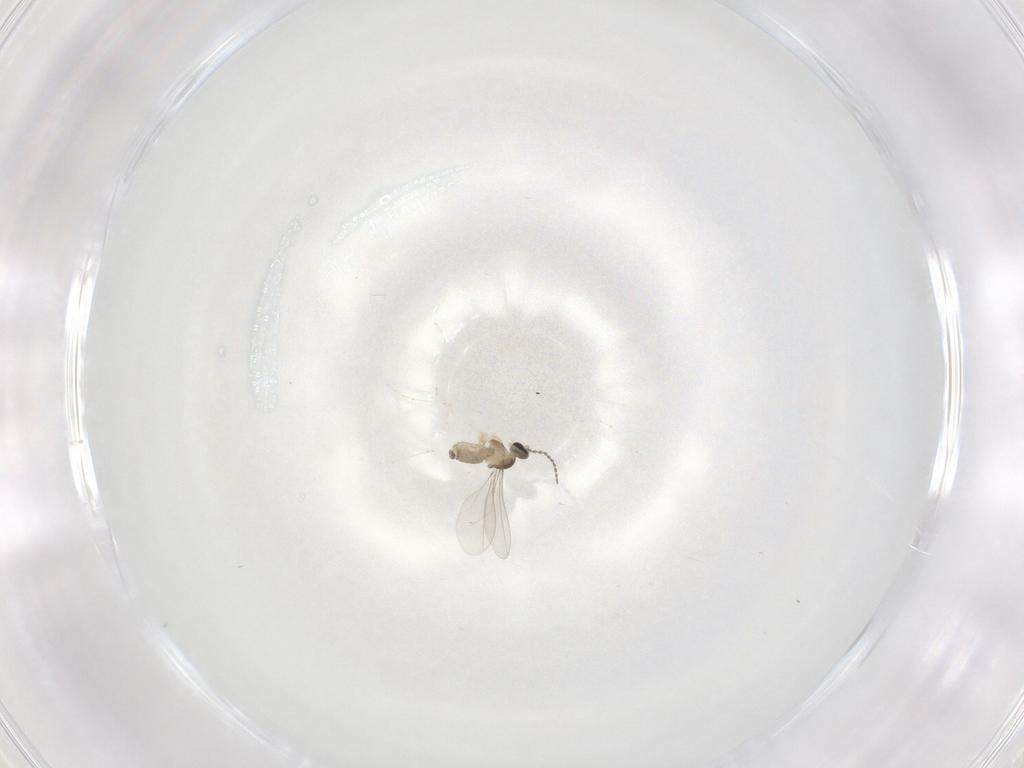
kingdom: Animalia
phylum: Arthropoda
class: Insecta
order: Diptera
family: Cecidomyiidae
